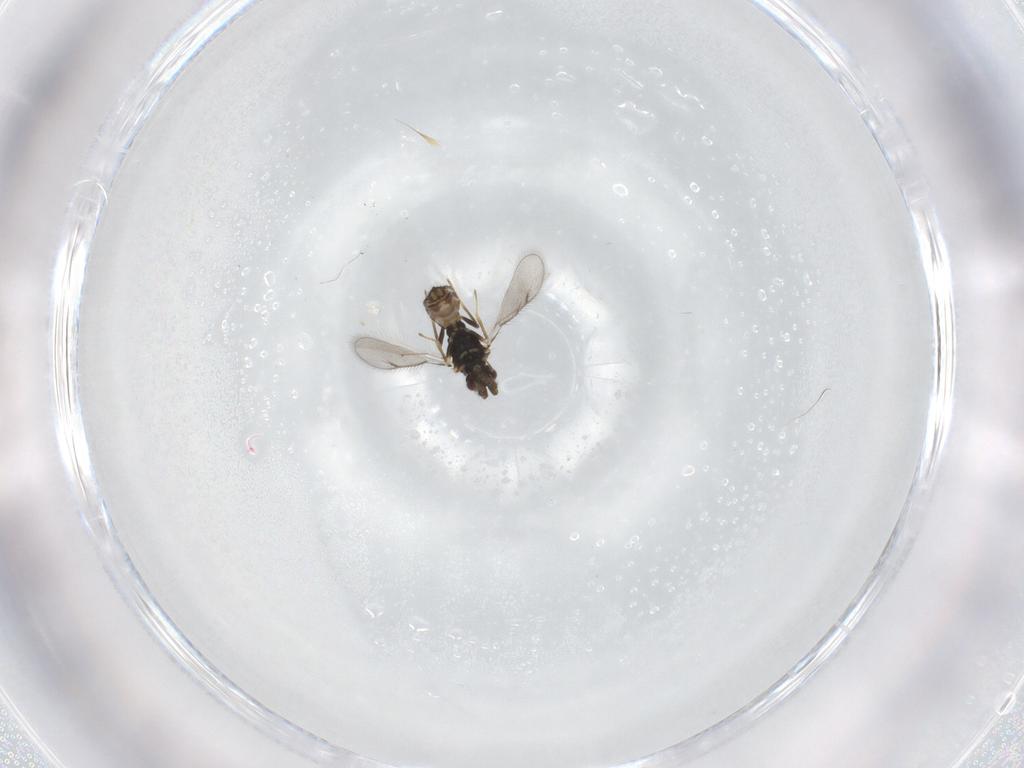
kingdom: Animalia
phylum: Arthropoda
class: Insecta
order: Hymenoptera
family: Eulophidae
